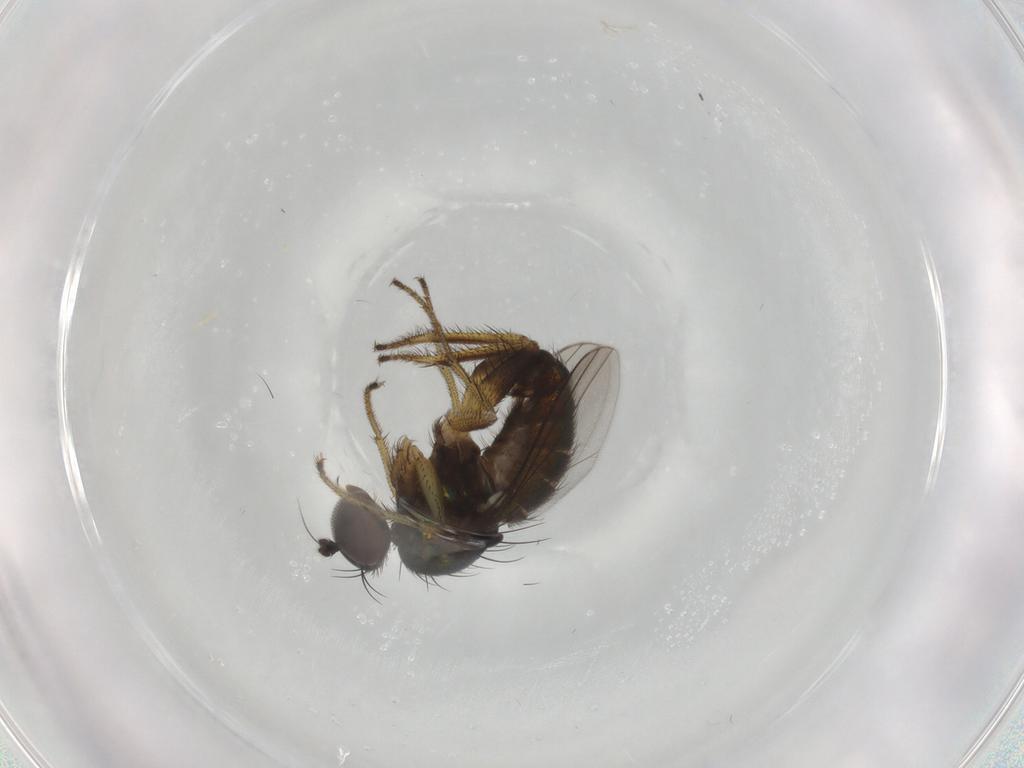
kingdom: Animalia
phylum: Arthropoda
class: Insecta
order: Diptera
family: Dolichopodidae
